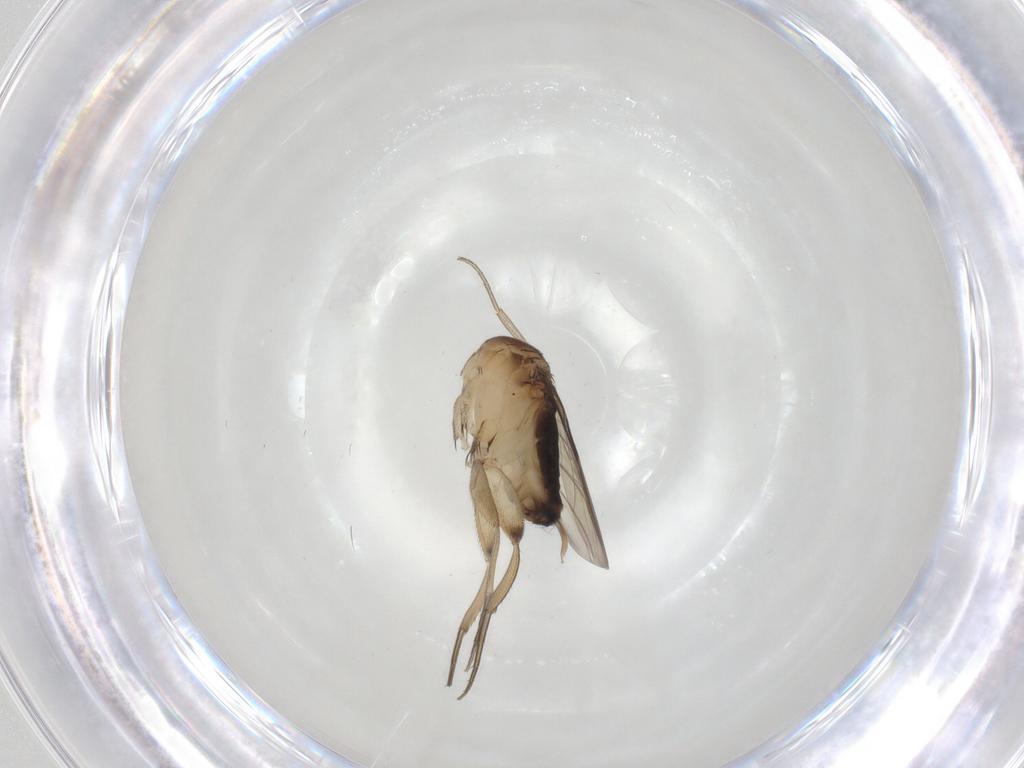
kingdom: Animalia
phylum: Arthropoda
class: Insecta
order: Diptera
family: Phoridae
